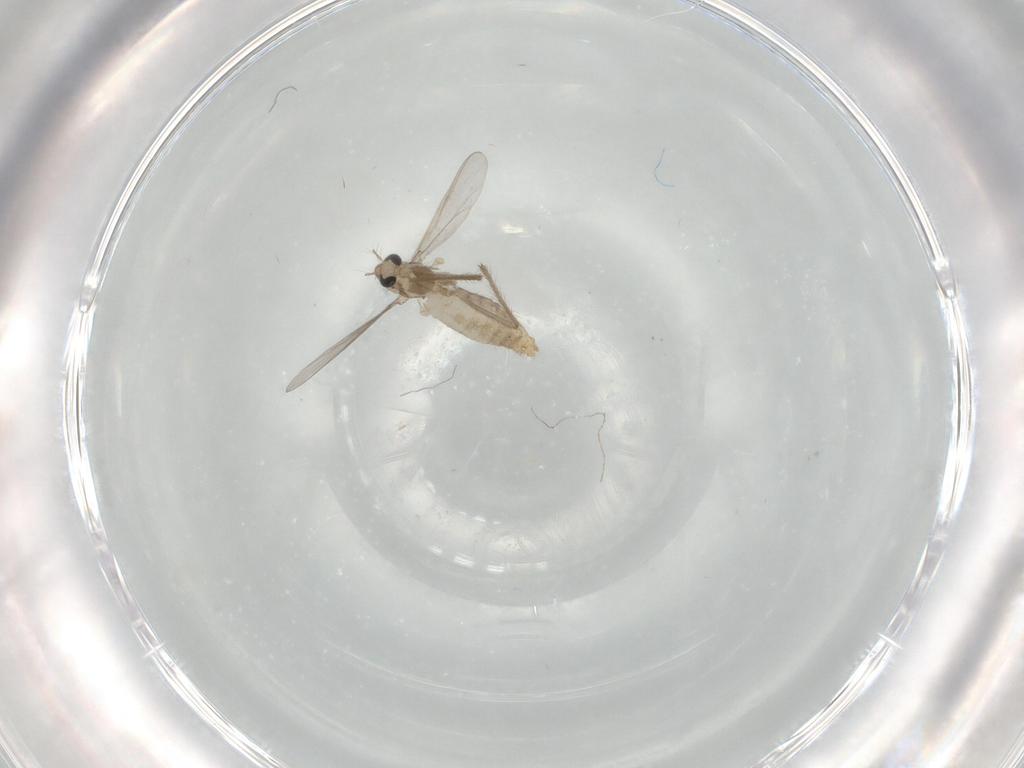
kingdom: Animalia
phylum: Arthropoda
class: Insecta
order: Diptera
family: Chironomidae
